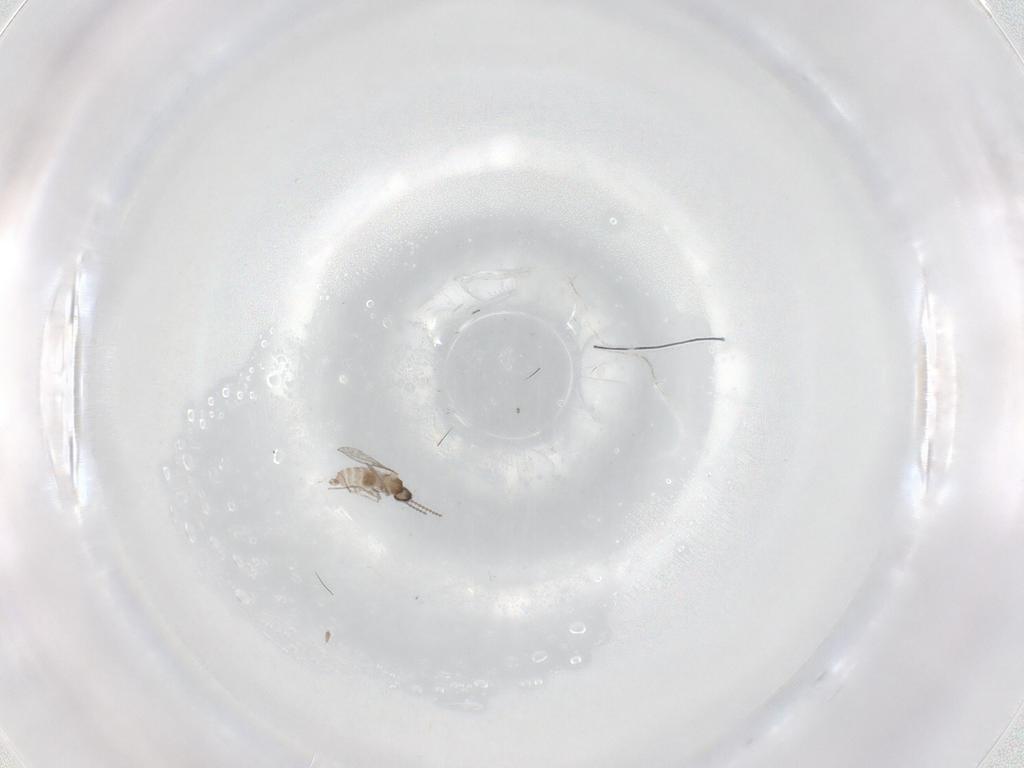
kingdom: Animalia
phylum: Arthropoda
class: Insecta
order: Diptera
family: Cecidomyiidae
